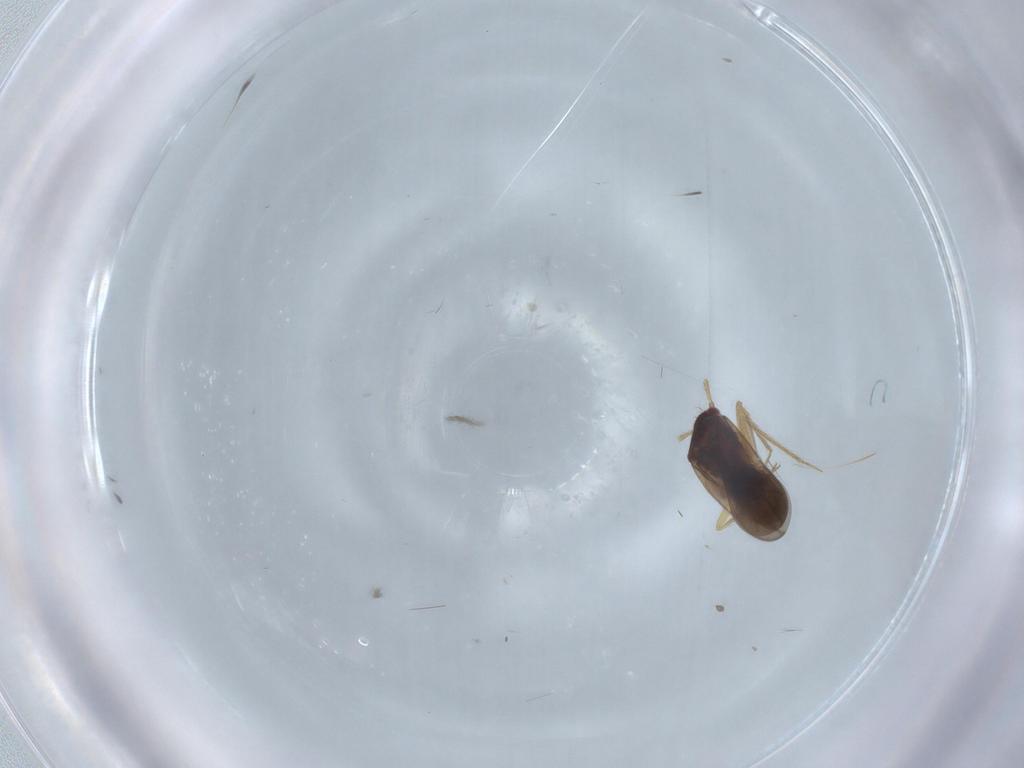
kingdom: Animalia
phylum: Arthropoda
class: Insecta
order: Hemiptera
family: Ceratocombidae
